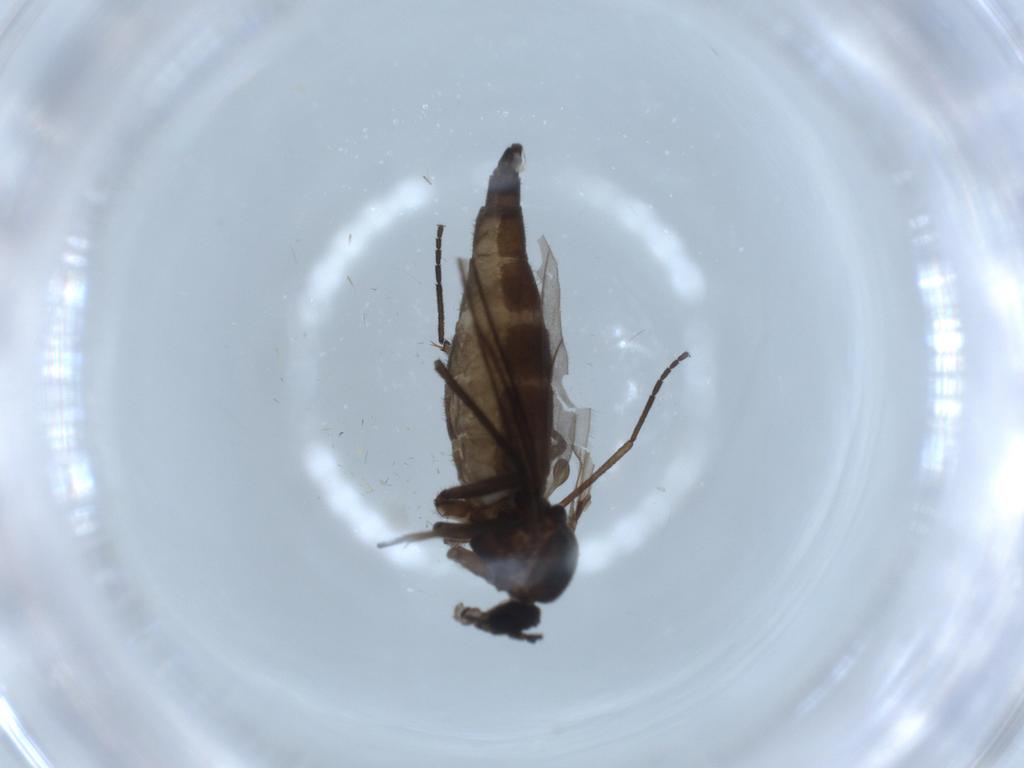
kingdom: Animalia
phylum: Arthropoda
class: Insecta
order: Diptera
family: Sciaridae
